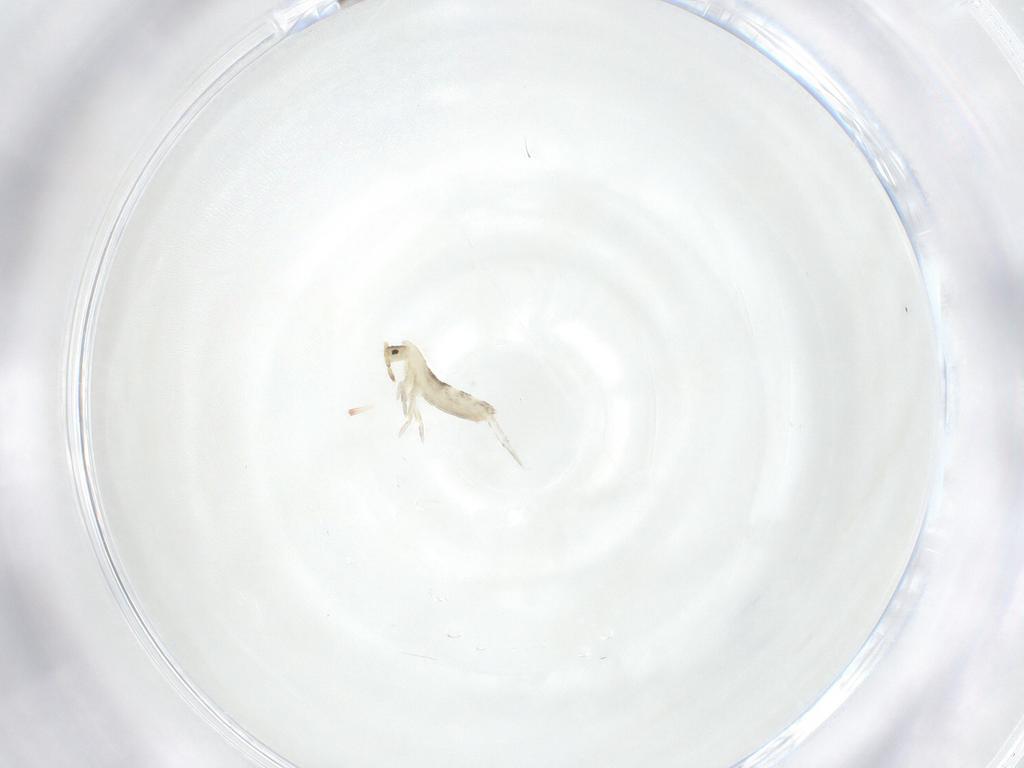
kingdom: Animalia
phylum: Arthropoda
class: Collembola
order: Entomobryomorpha
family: Entomobryidae
